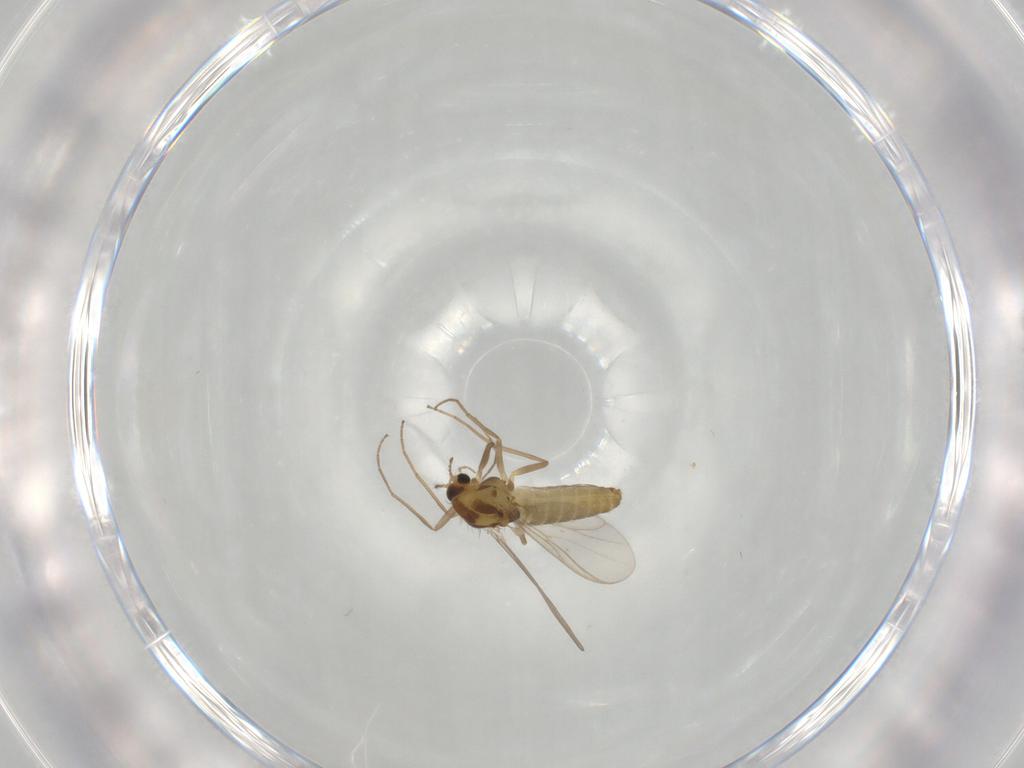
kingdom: Animalia
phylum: Arthropoda
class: Insecta
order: Diptera
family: Chironomidae
